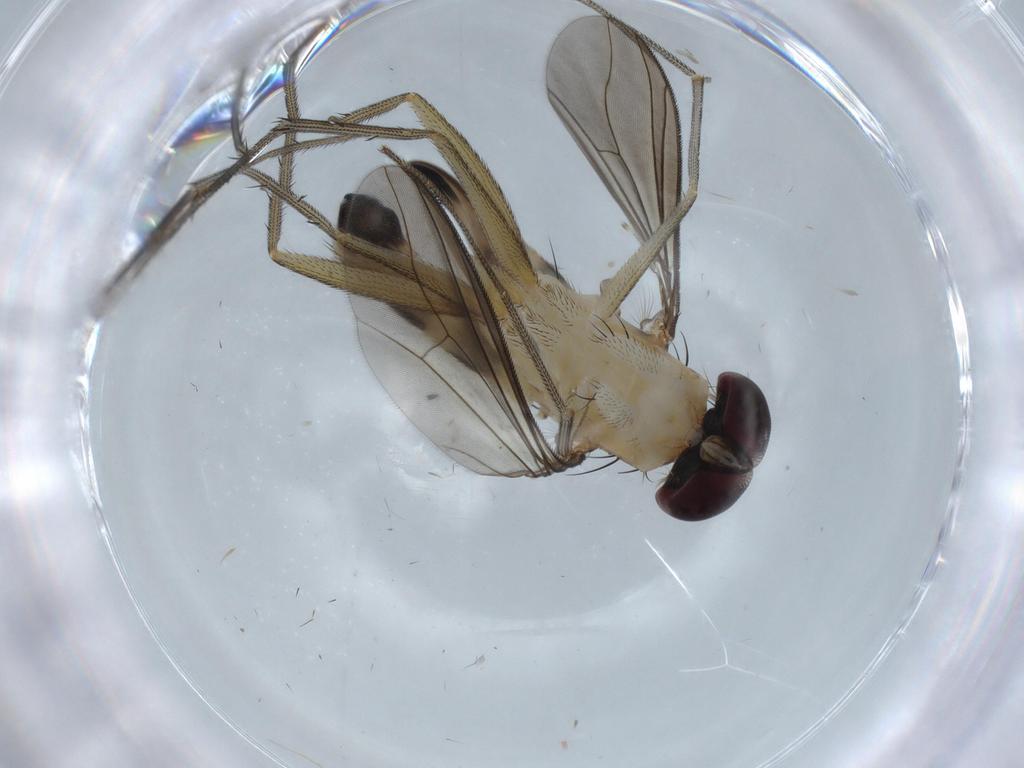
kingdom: Animalia
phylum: Arthropoda
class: Insecta
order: Diptera
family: Dolichopodidae
